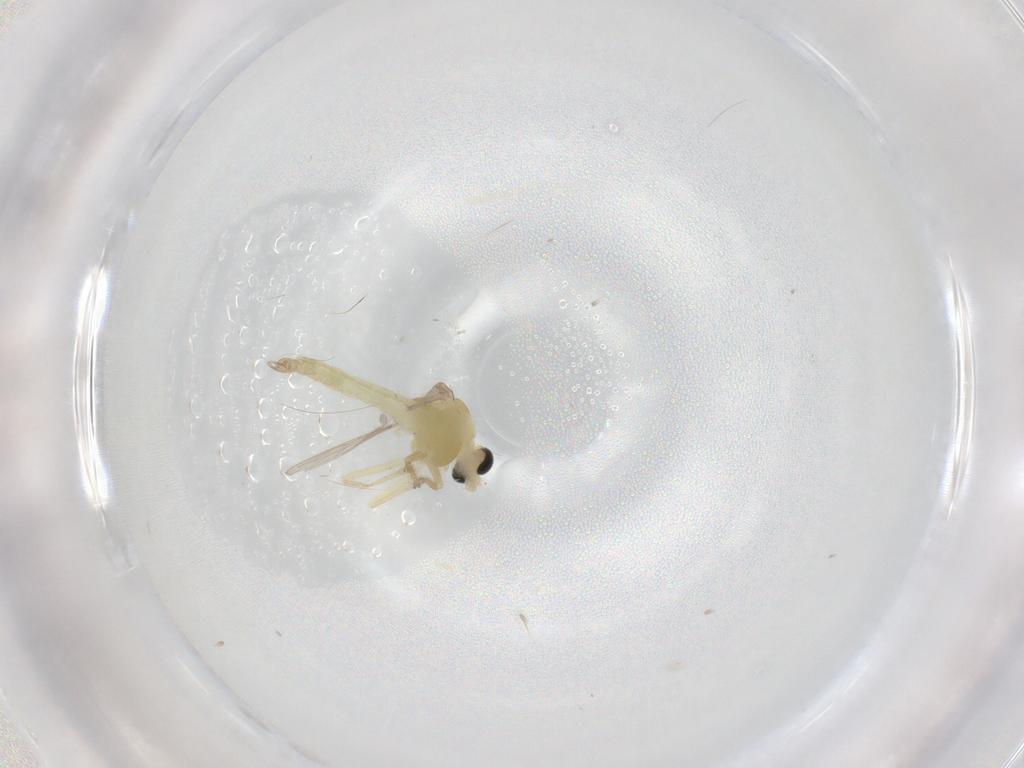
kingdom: Animalia
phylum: Arthropoda
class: Insecta
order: Diptera
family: Chironomidae
